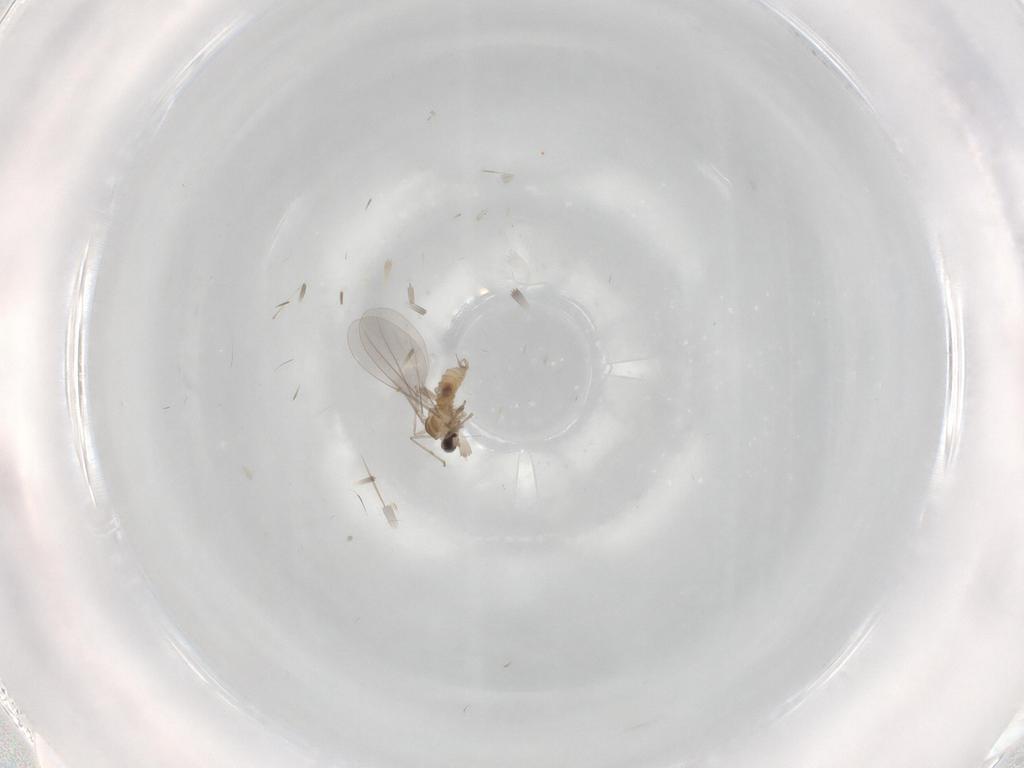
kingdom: Animalia
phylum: Arthropoda
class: Insecta
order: Diptera
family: Cecidomyiidae
